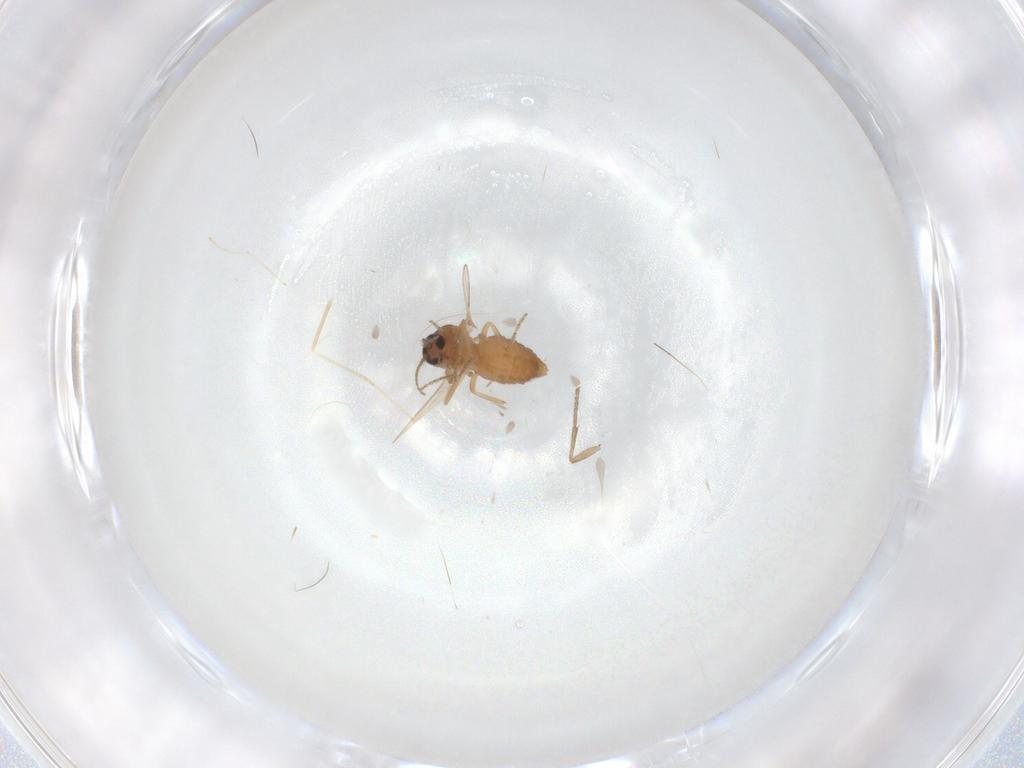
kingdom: Animalia
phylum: Arthropoda
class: Insecta
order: Diptera
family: Ceratopogonidae
